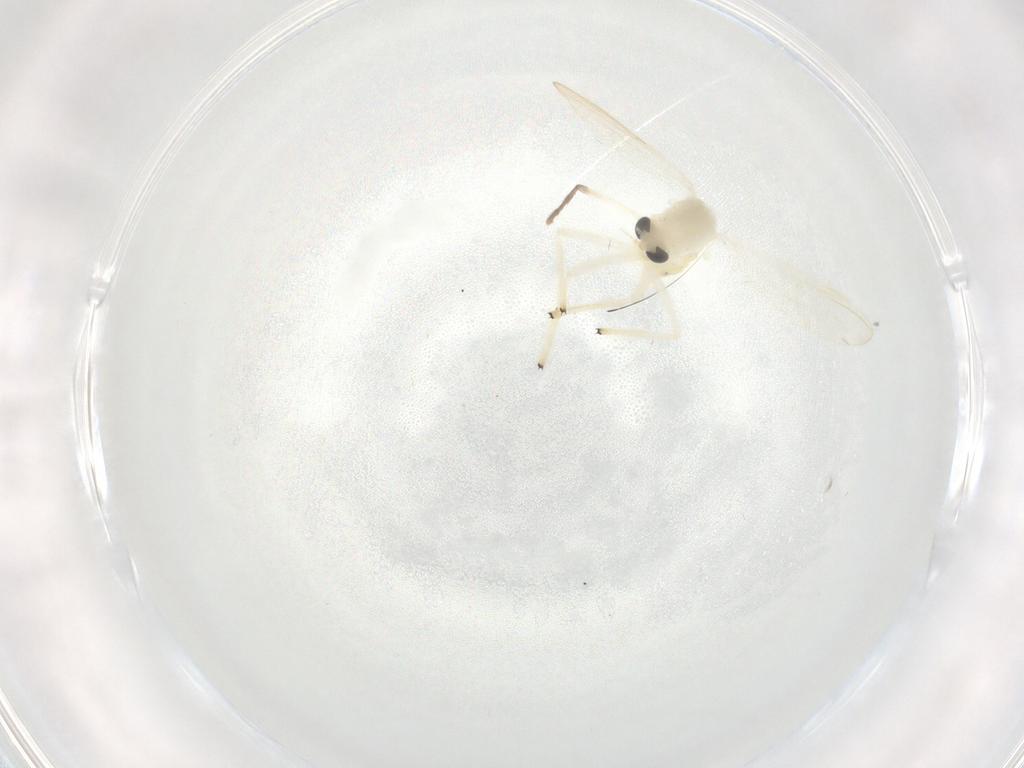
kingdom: Animalia
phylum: Arthropoda
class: Insecta
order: Diptera
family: Chironomidae
